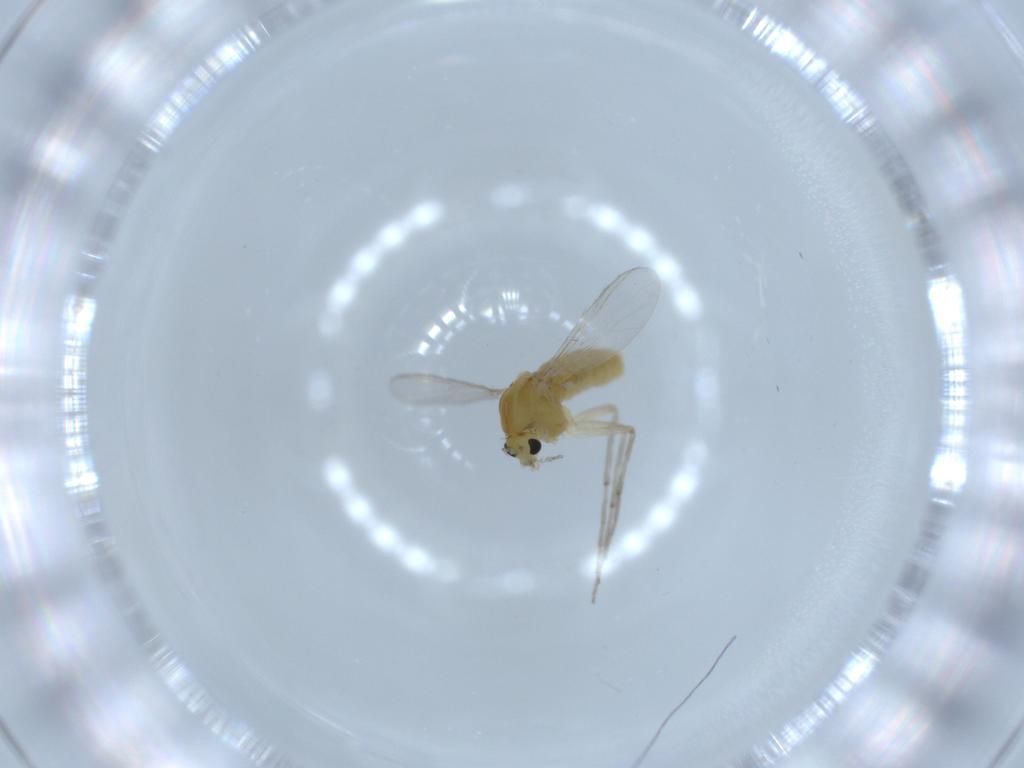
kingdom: Animalia
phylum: Arthropoda
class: Insecta
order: Diptera
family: Chironomidae
